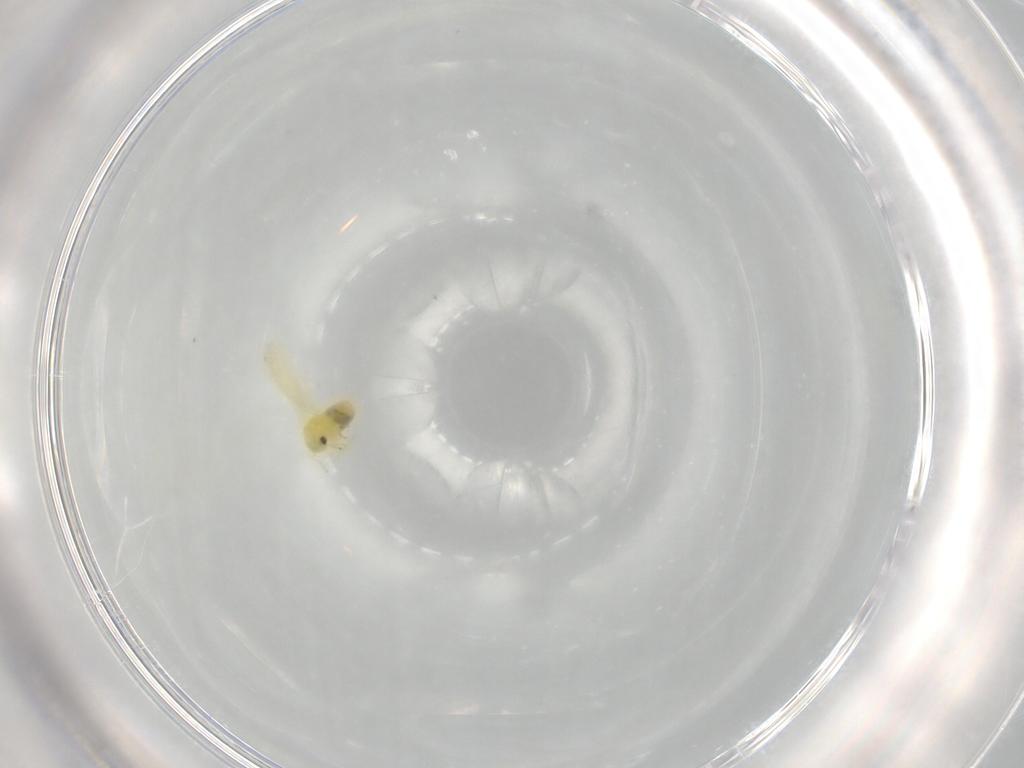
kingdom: Animalia
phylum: Arthropoda
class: Insecta
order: Hemiptera
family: Aleyrodidae
